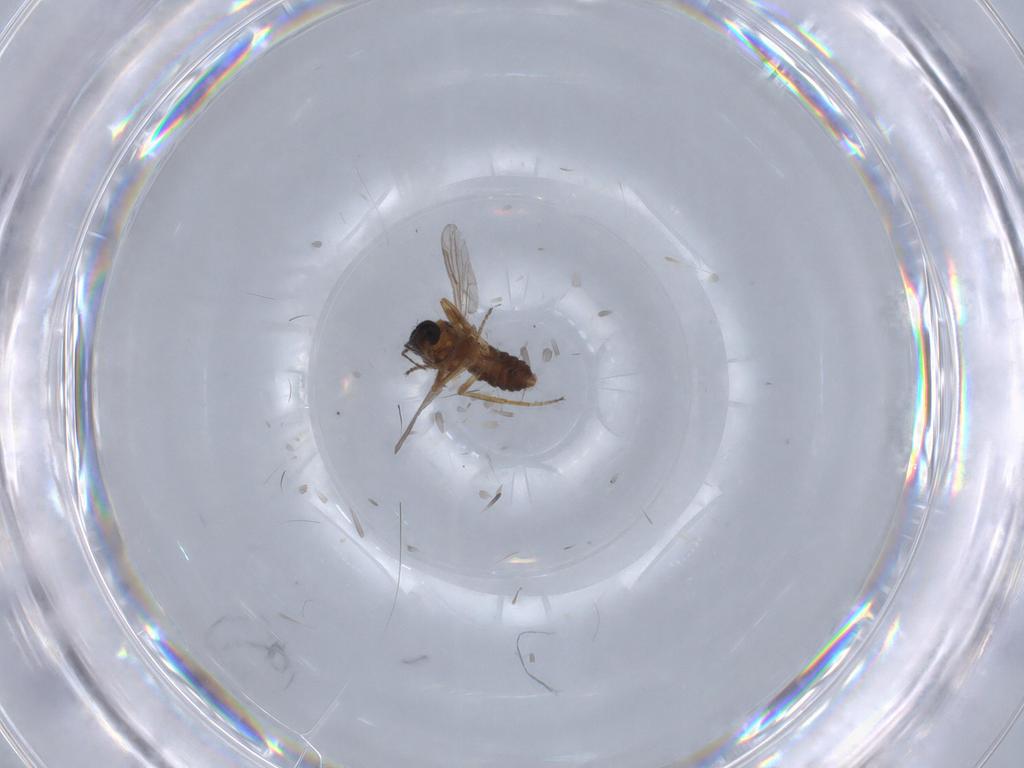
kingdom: Animalia
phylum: Arthropoda
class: Insecta
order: Diptera
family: Ceratopogonidae
